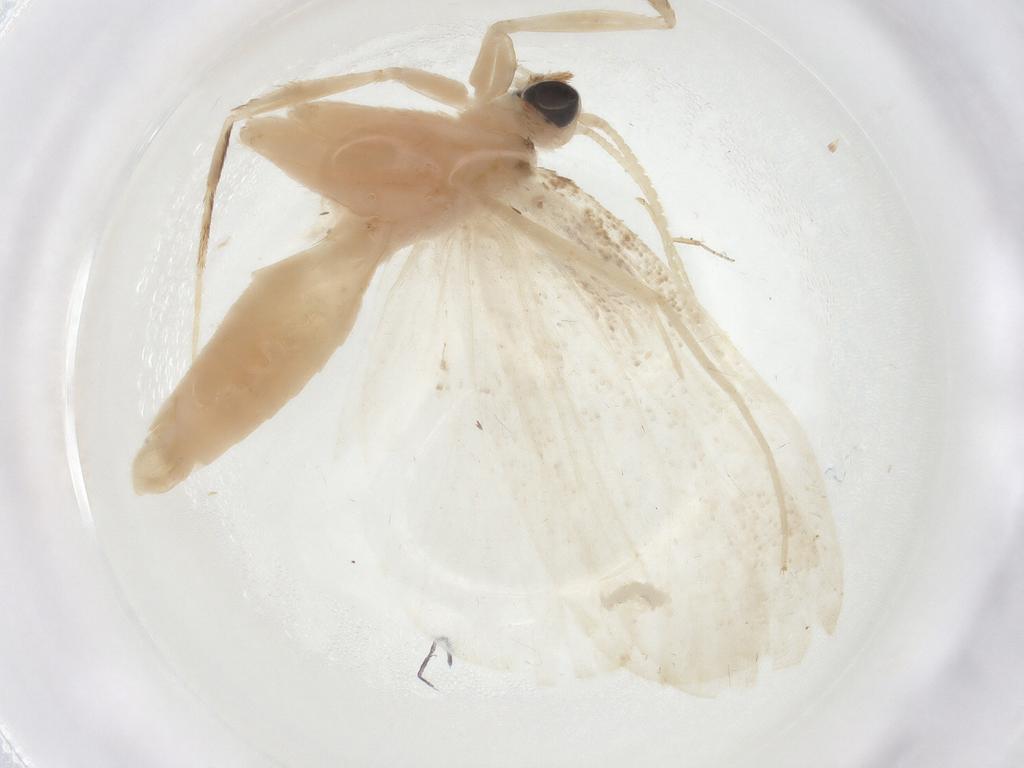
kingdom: Animalia
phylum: Arthropoda
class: Insecta
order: Lepidoptera
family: Crambidae
